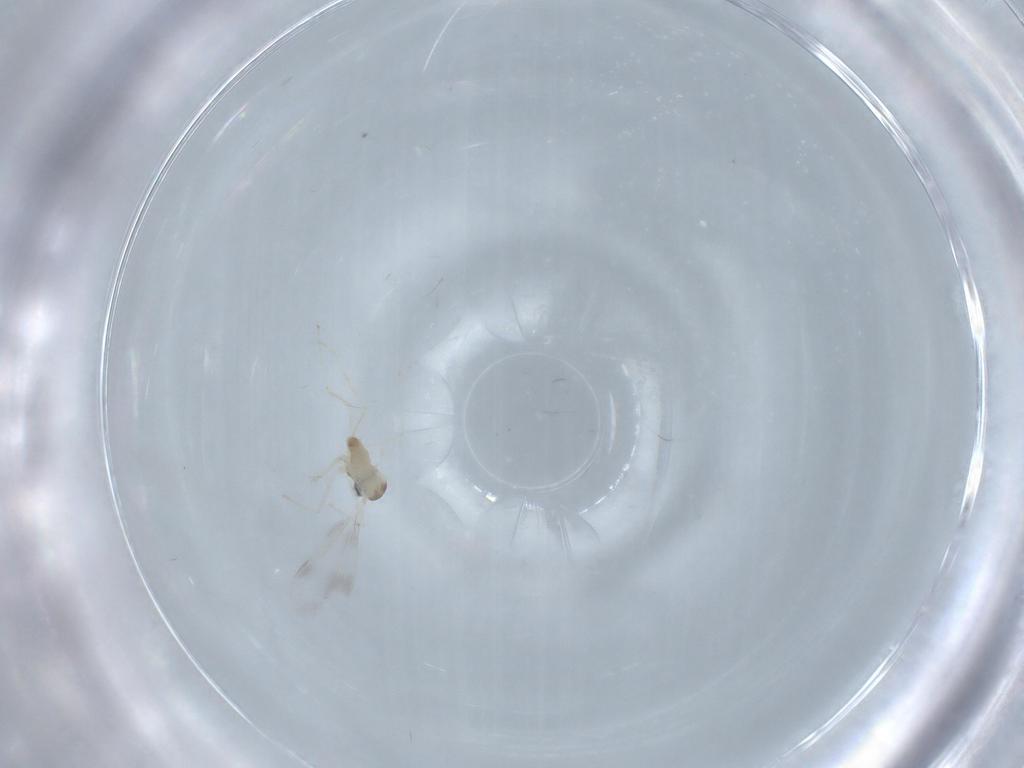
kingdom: Animalia
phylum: Arthropoda
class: Insecta
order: Diptera
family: Cecidomyiidae
